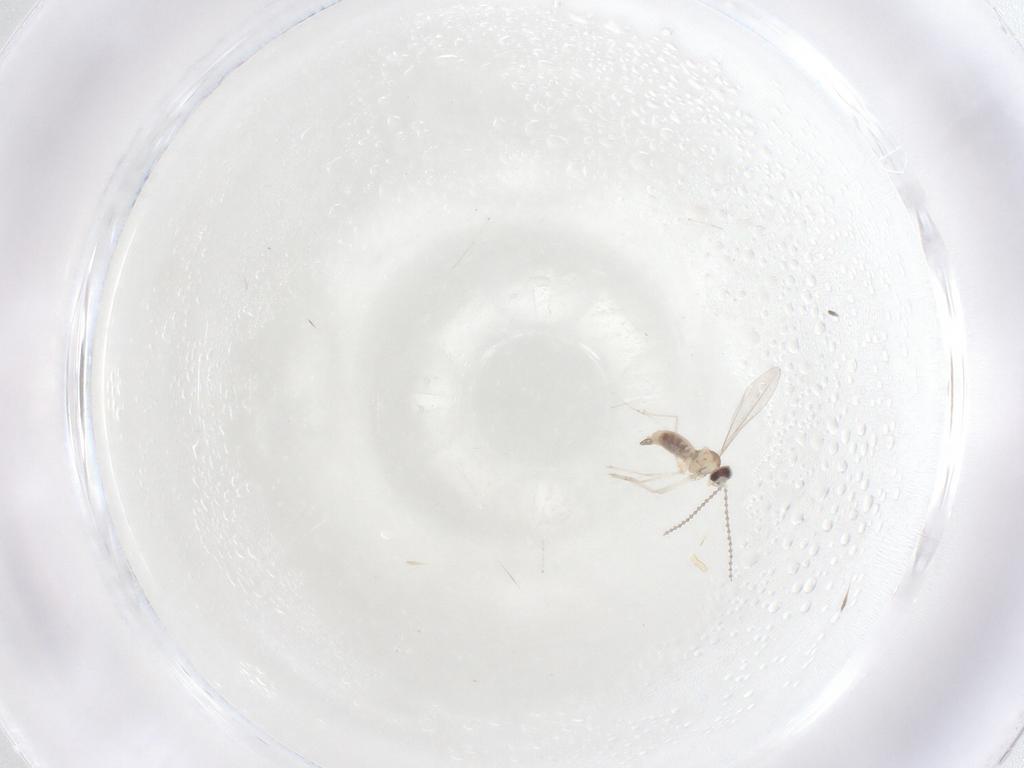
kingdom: Animalia
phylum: Arthropoda
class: Insecta
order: Diptera
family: Cecidomyiidae
